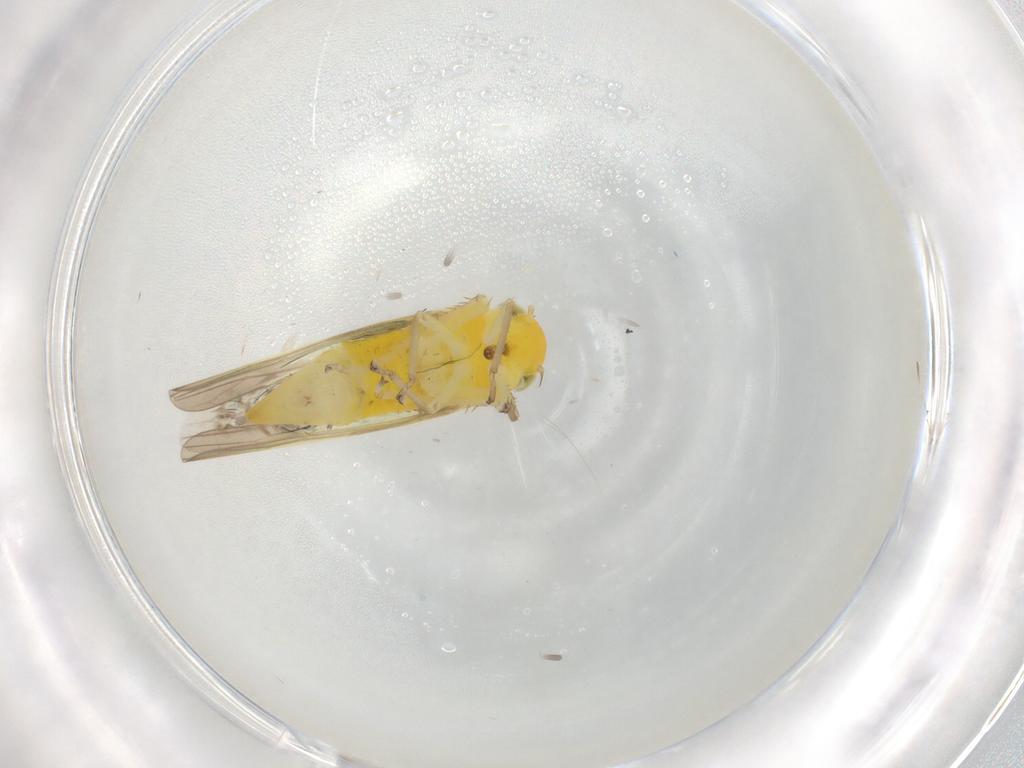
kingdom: Animalia
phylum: Arthropoda
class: Insecta
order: Hemiptera
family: Cicadellidae
